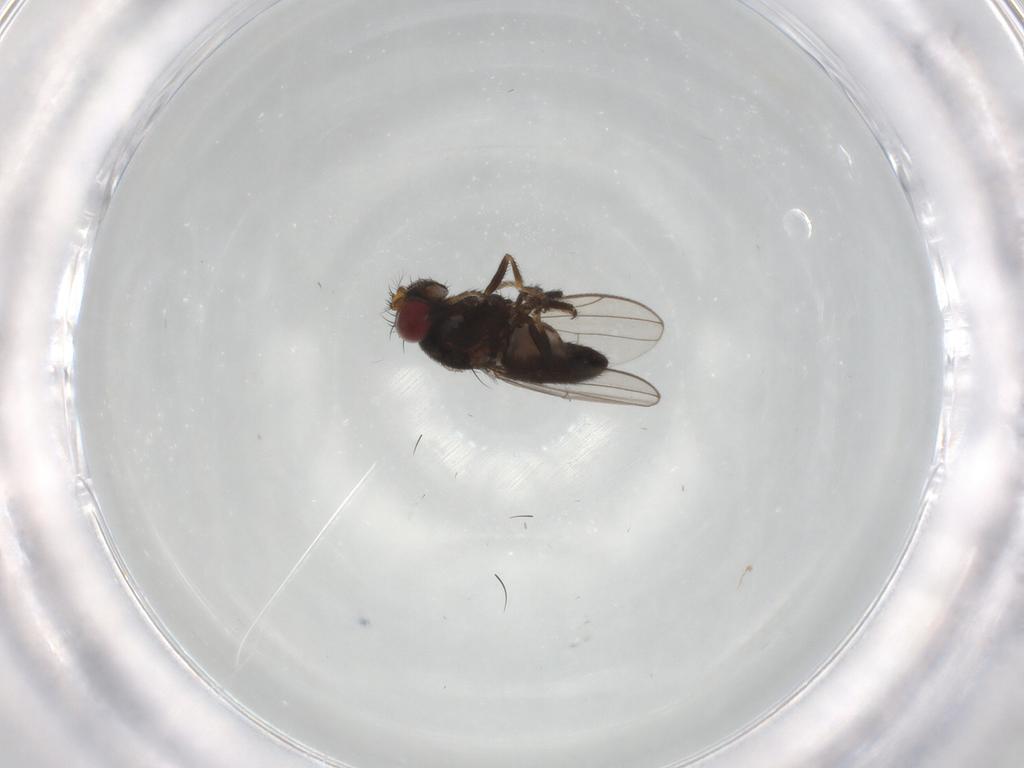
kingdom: Animalia
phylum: Arthropoda
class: Insecta
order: Diptera
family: Ephydridae
